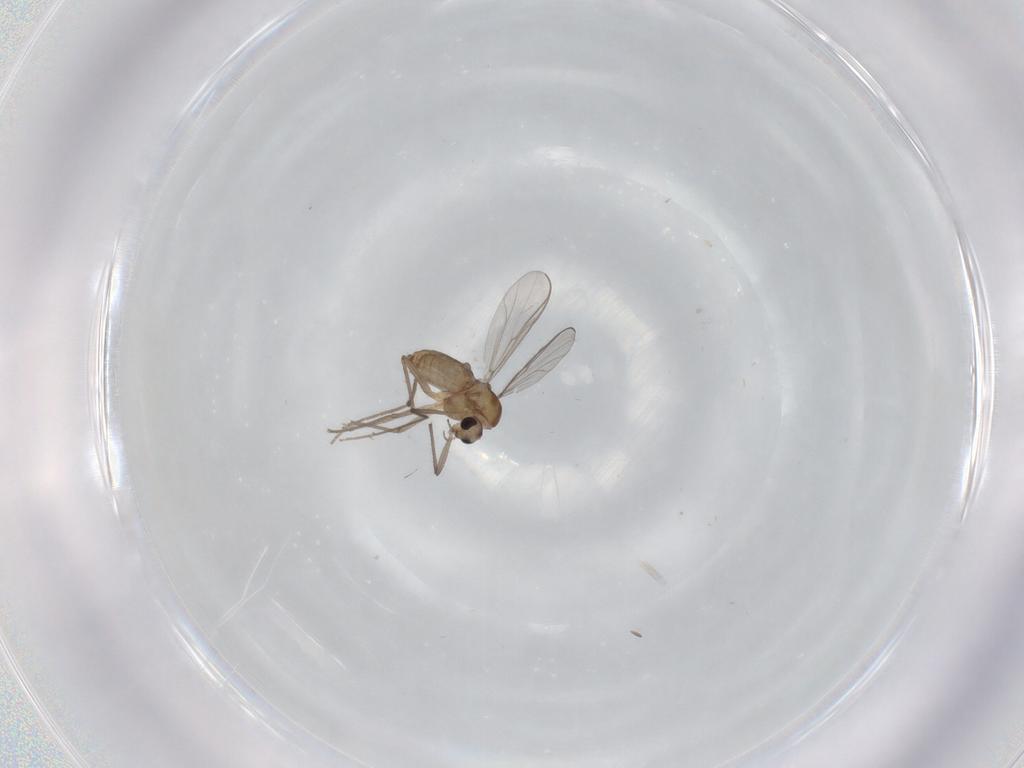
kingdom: Animalia
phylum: Arthropoda
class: Insecta
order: Diptera
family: Chironomidae
